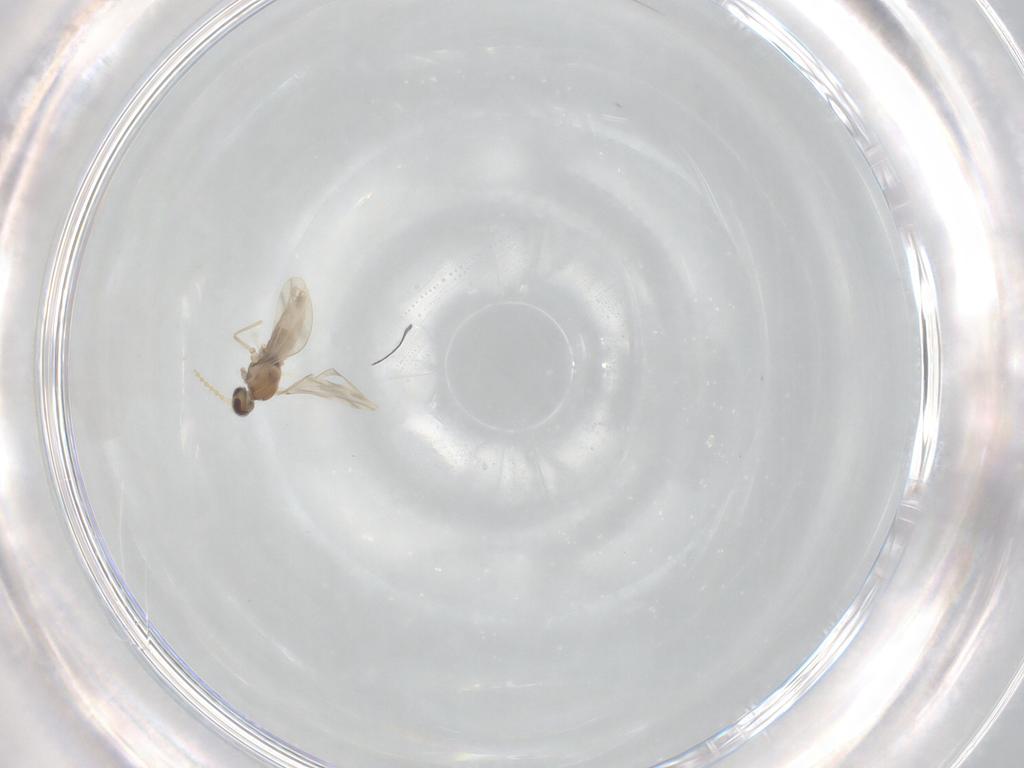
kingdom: Animalia
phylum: Arthropoda
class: Insecta
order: Diptera
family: Cecidomyiidae
